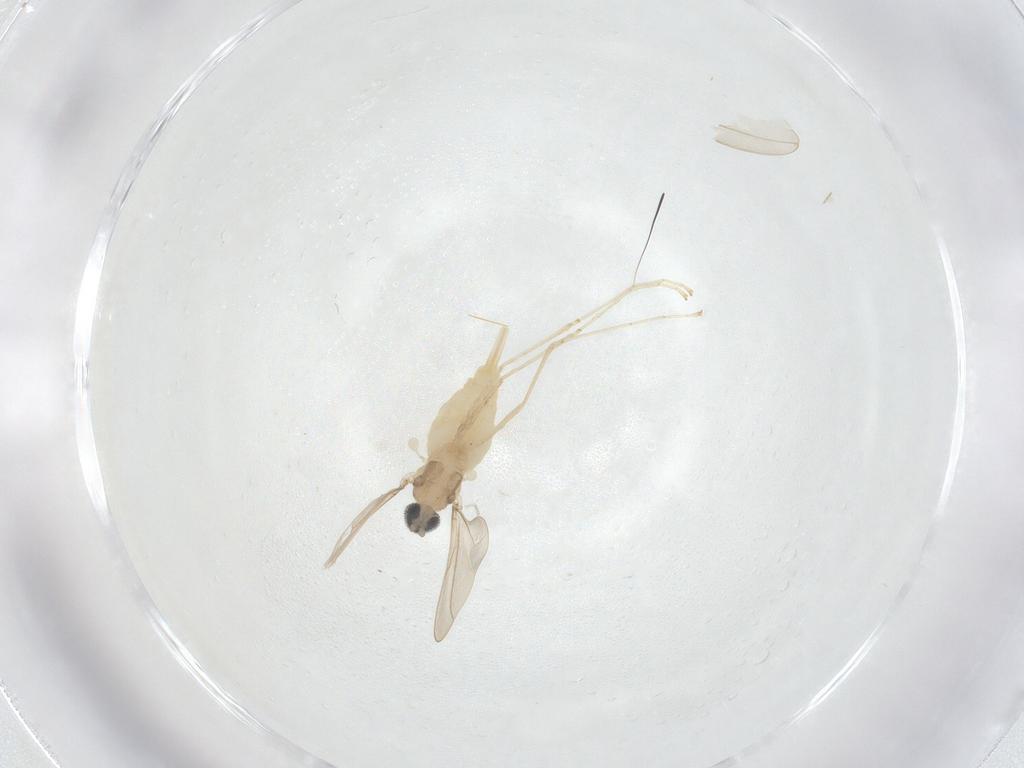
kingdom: Animalia
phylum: Arthropoda
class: Insecta
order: Diptera
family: Cecidomyiidae
